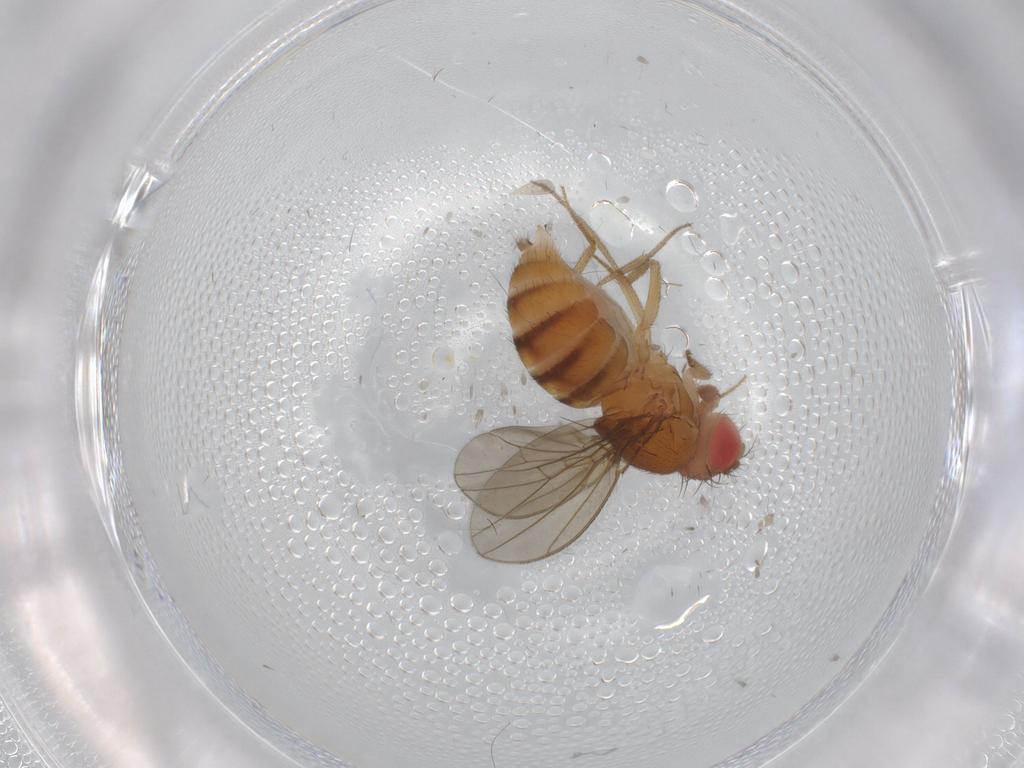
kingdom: Animalia
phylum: Arthropoda
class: Insecta
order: Diptera
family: Drosophilidae
